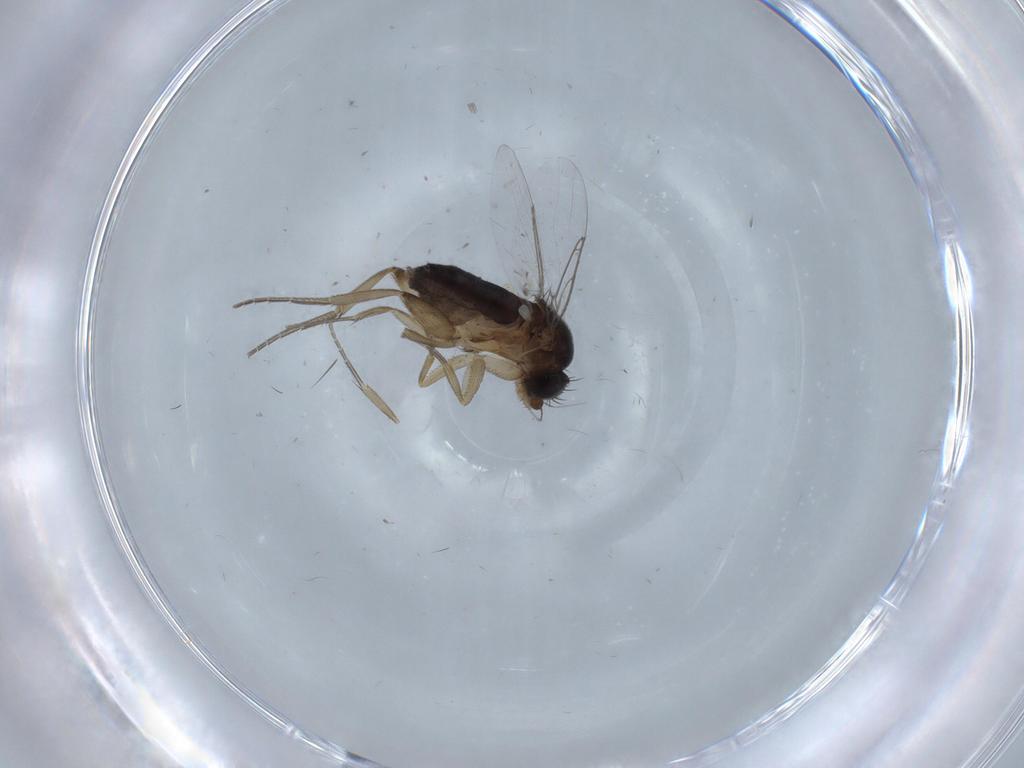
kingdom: Animalia
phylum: Arthropoda
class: Insecta
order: Diptera
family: Phoridae
